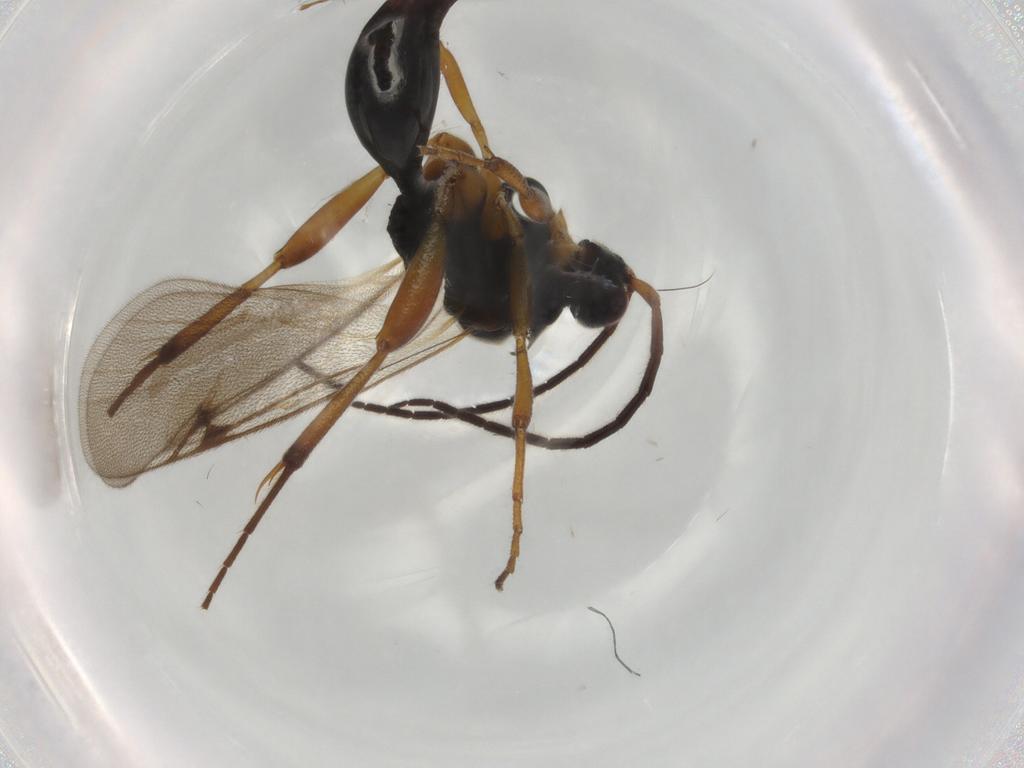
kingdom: Animalia
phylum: Arthropoda
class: Insecta
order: Hymenoptera
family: Proctotrupidae
